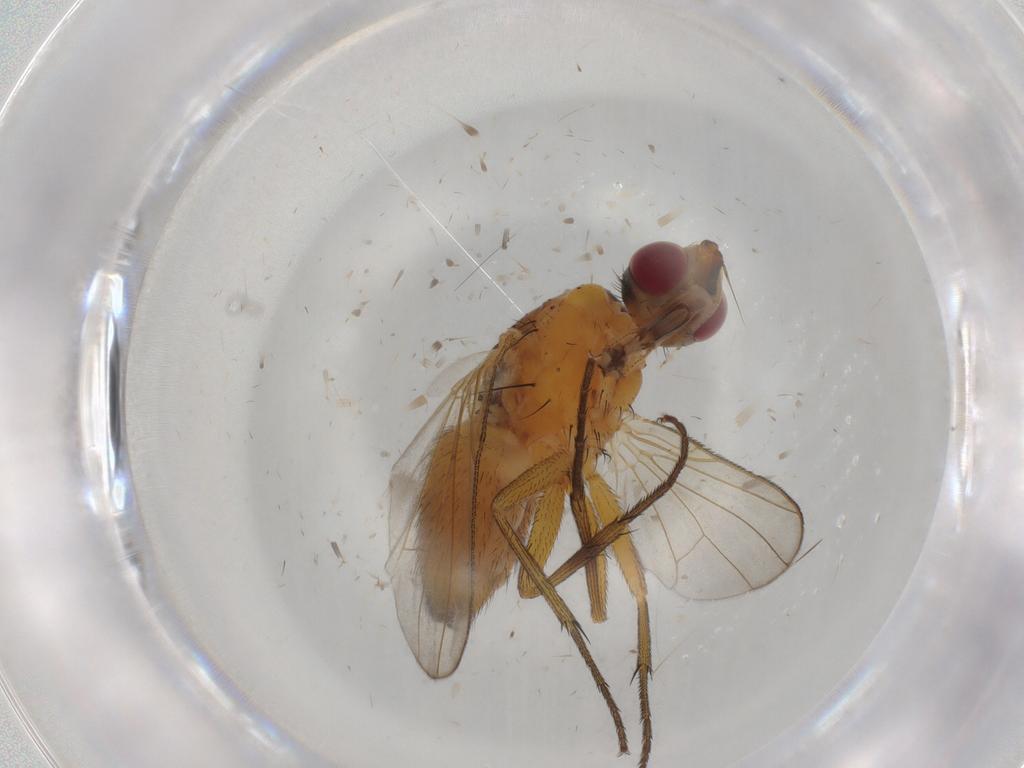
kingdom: Animalia
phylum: Arthropoda
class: Insecta
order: Diptera
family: Muscidae
